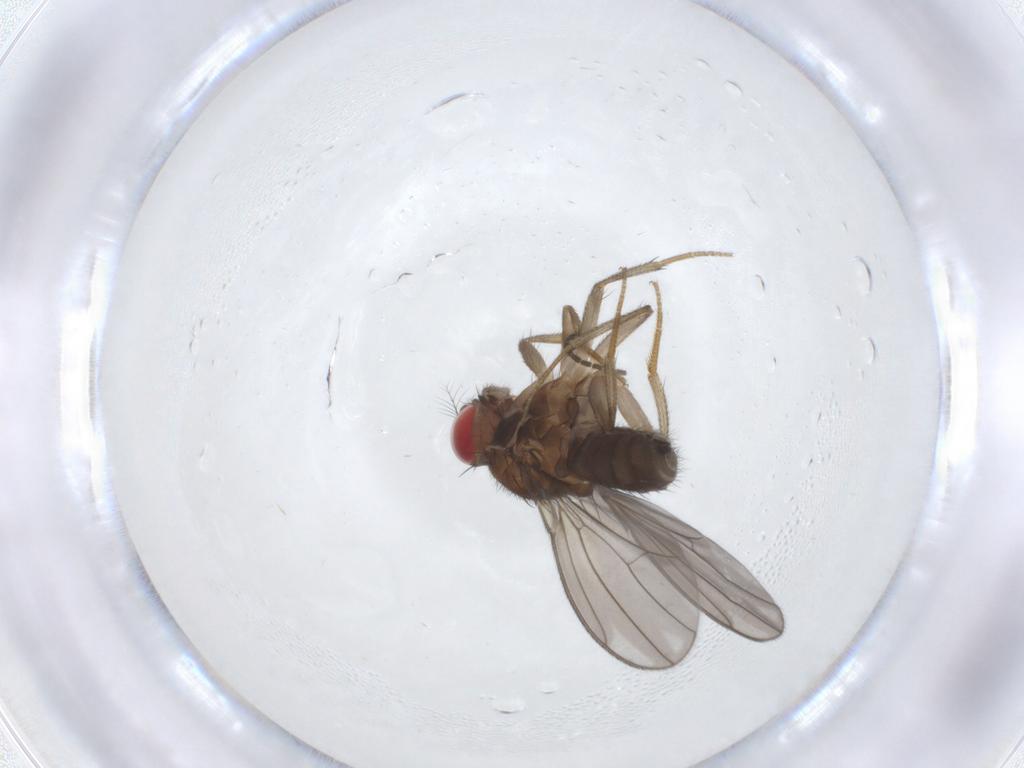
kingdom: Animalia
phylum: Arthropoda
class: Insecta
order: Diptera
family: Drosophilidae
